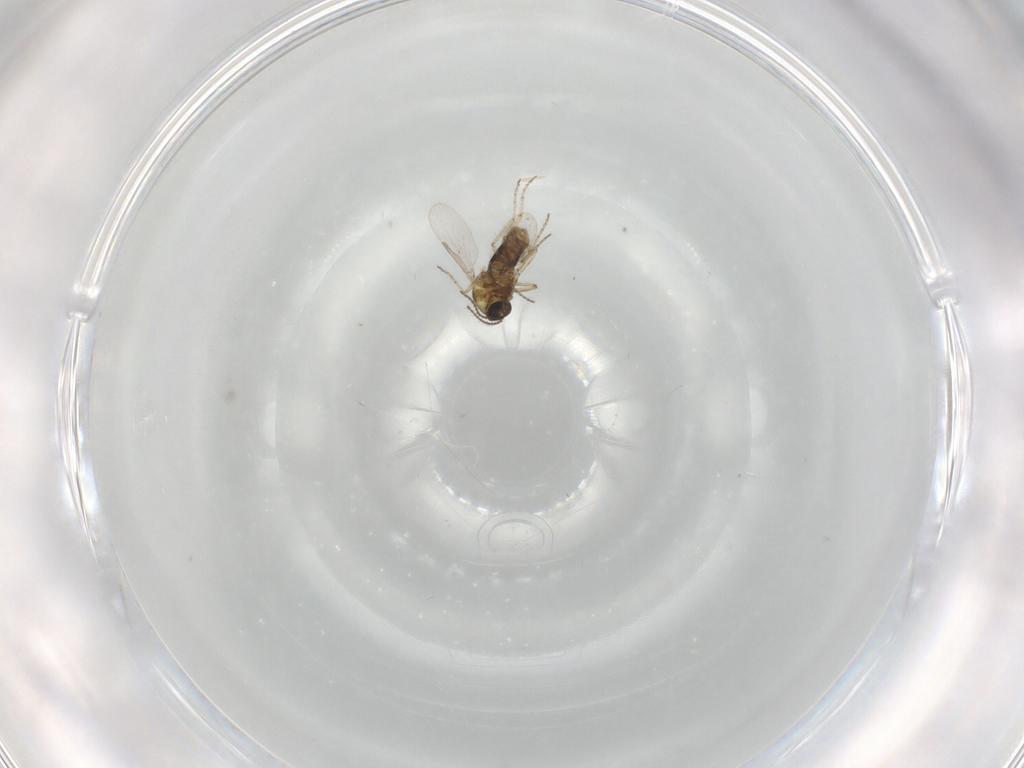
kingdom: Animalia
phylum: Arthropoda
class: Insecta
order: Diptera
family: Ceratopogonidae
